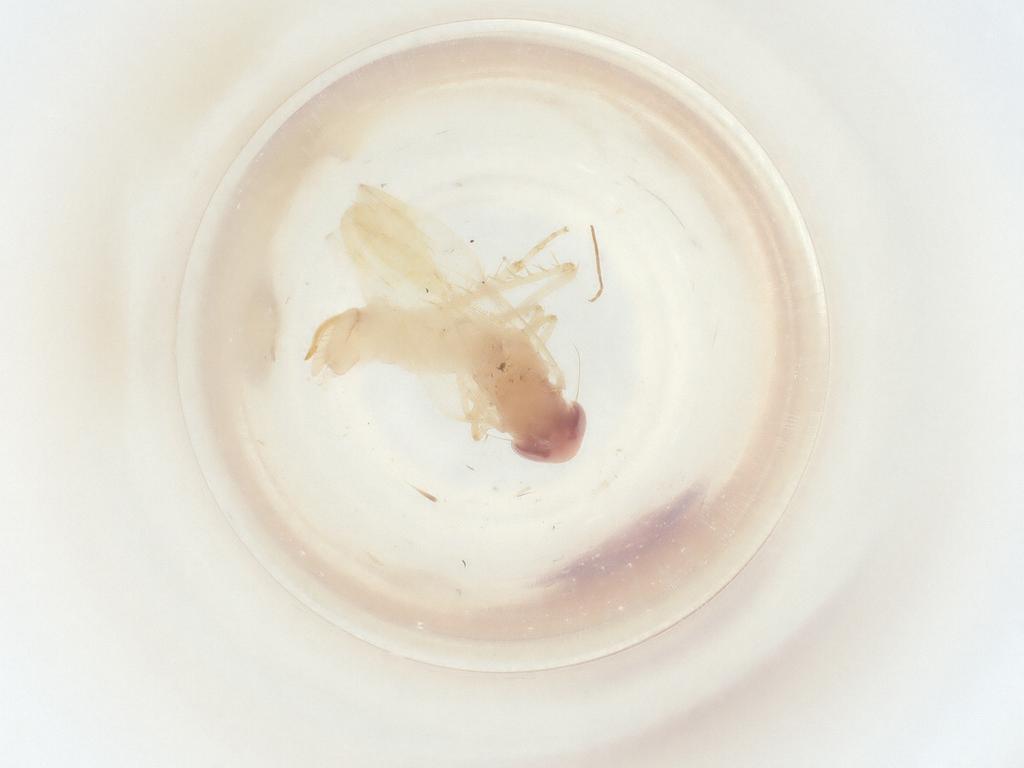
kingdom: Animalia
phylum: Arthropoda
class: Insecta
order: Hemiptera
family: Cicadellidae
